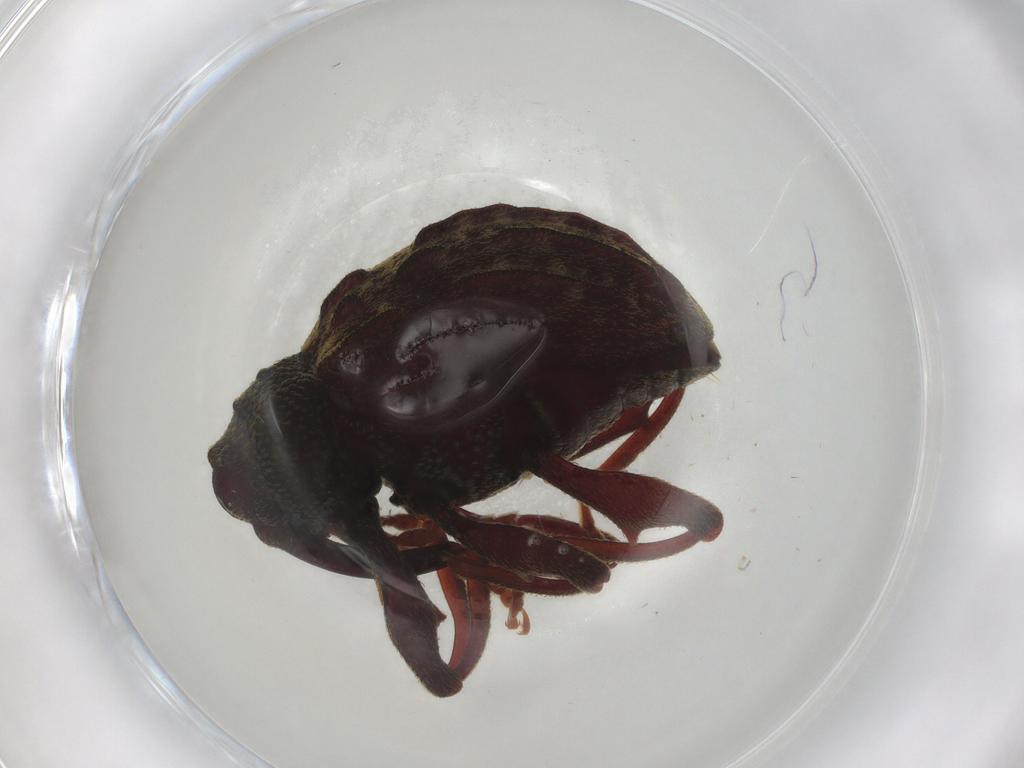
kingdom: Animalia
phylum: Arthropoda
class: Insecta
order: Coleoptera
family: Curculionidae
